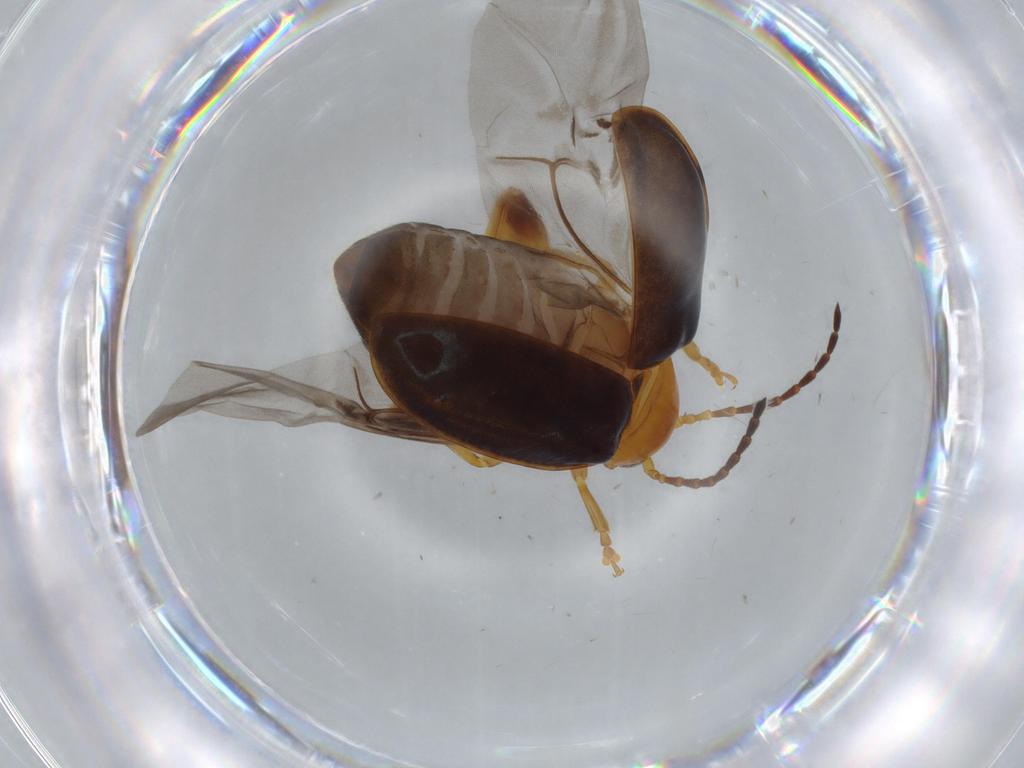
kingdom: Animalia
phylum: Arthropoda
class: Insecta
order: Coleoptera
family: Chrysomelidae
